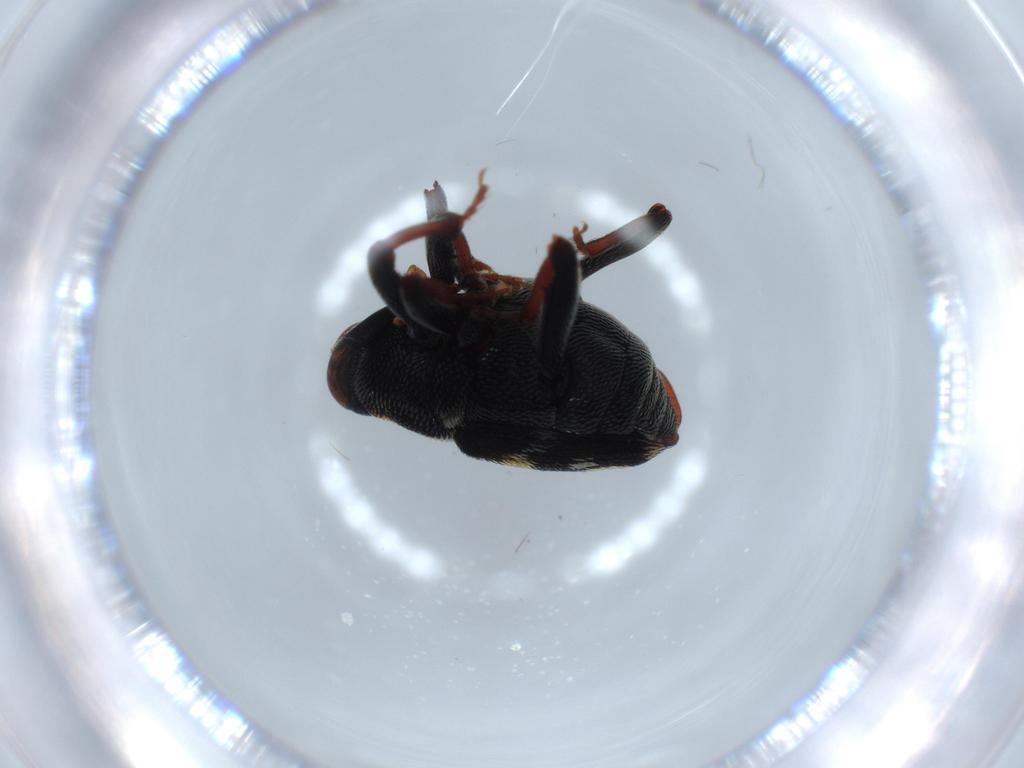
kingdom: Animalia
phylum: Arthropoda
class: Insecta
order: Coleoptera
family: Curculionidae
